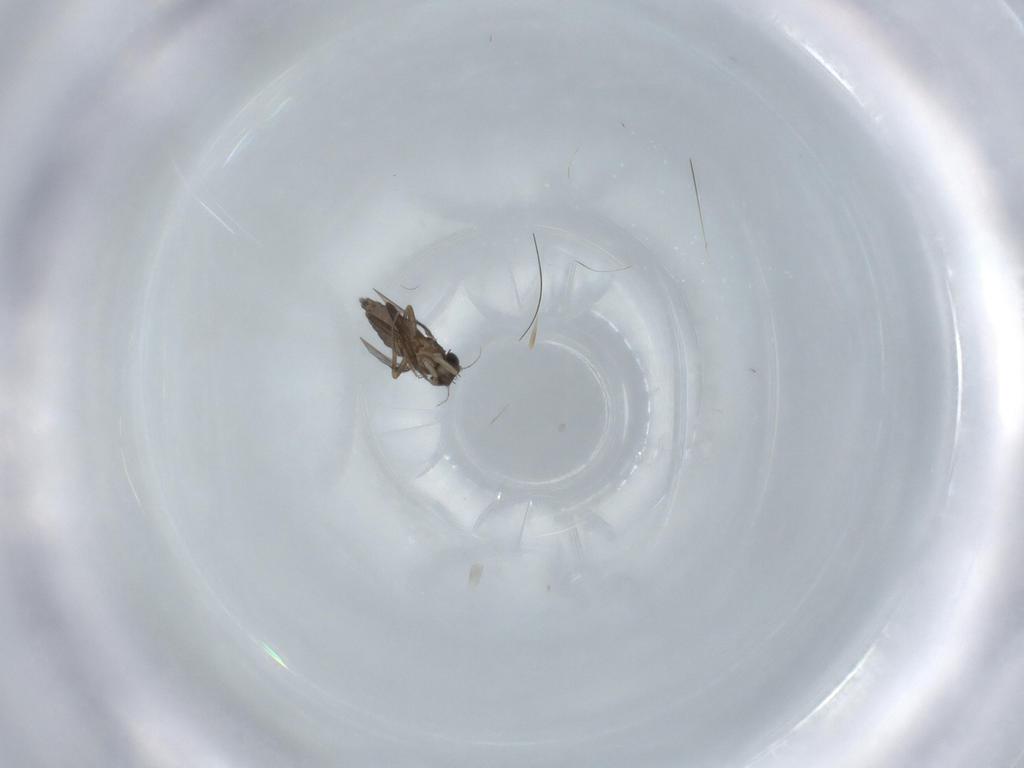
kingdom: Animalia
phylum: Arthropoda
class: Insecta
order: Diptera
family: Phoridae
